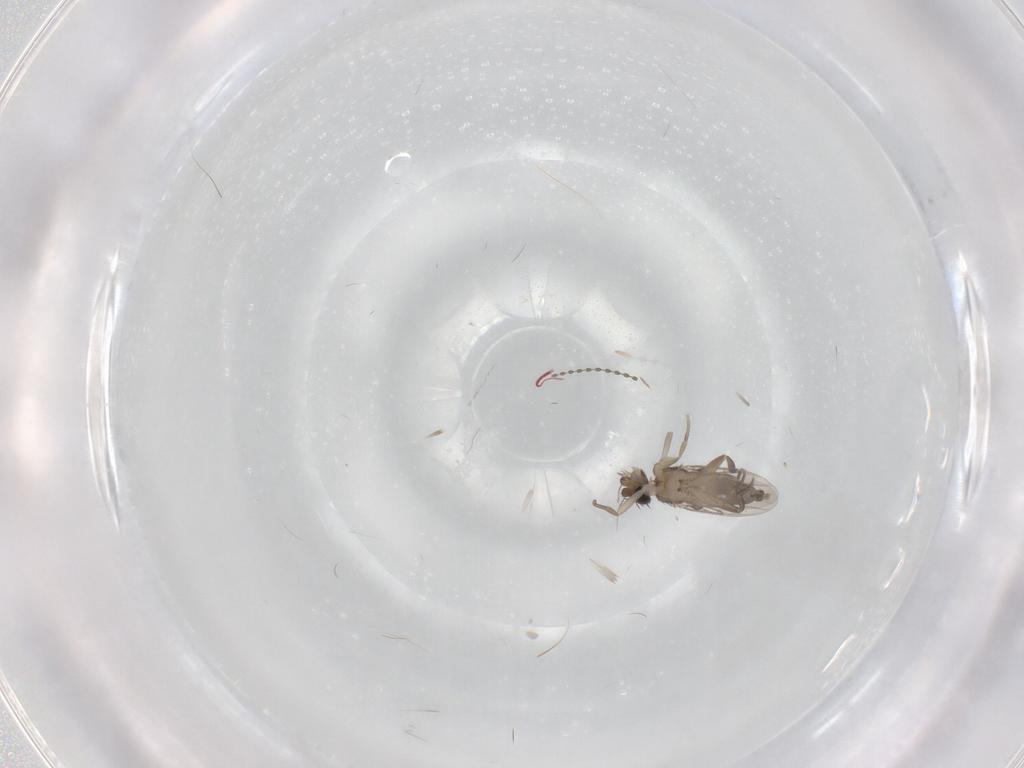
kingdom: Animalia
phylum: Arthropoda
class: Insecta
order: Diptera
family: Phoridae
